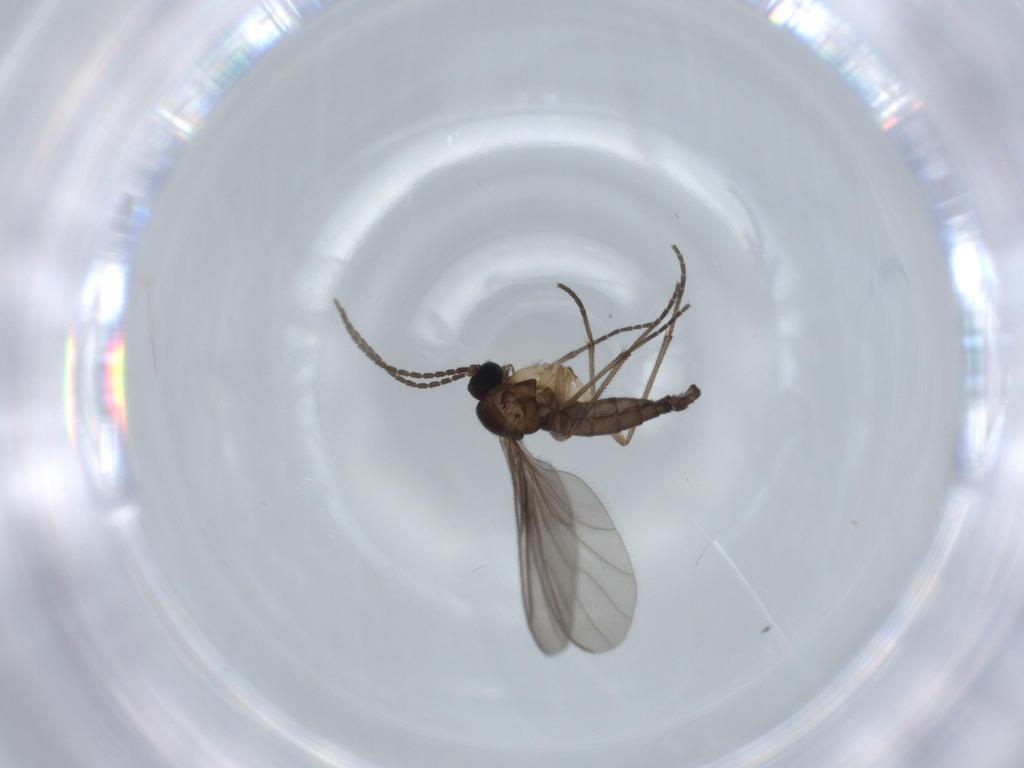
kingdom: Animalia
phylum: Arthropoda
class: Insecta
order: Diptera
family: Sciaridae
